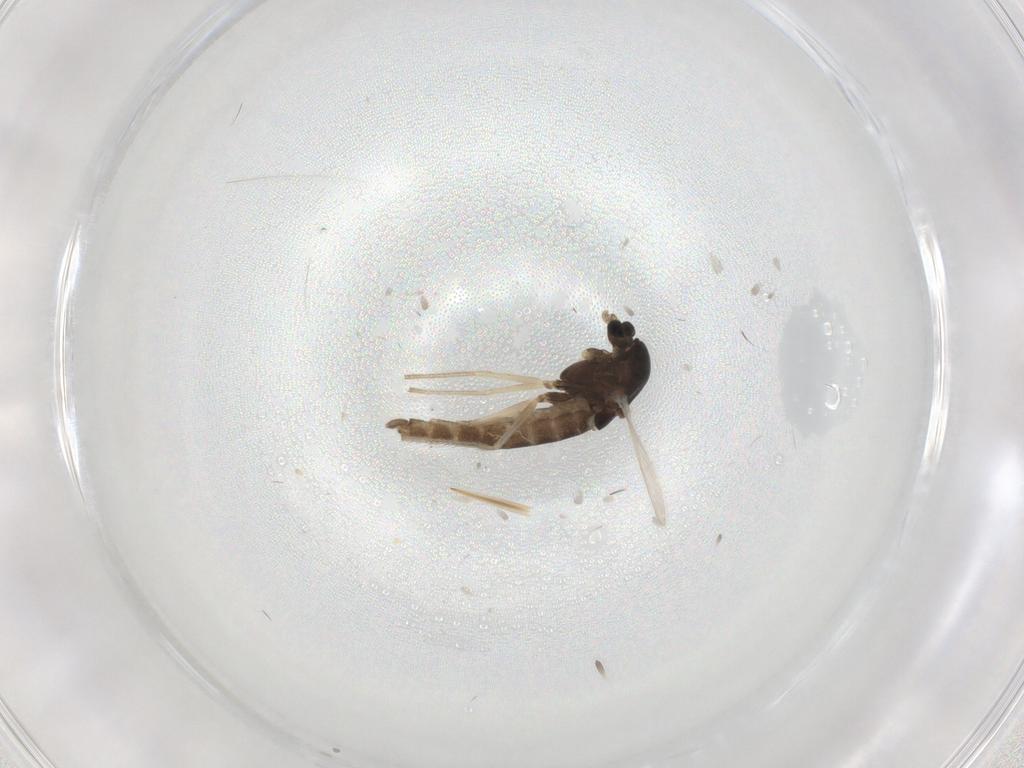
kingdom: Animalia
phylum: Arthropoda
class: Insecta
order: Diptera
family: Chironomidae
